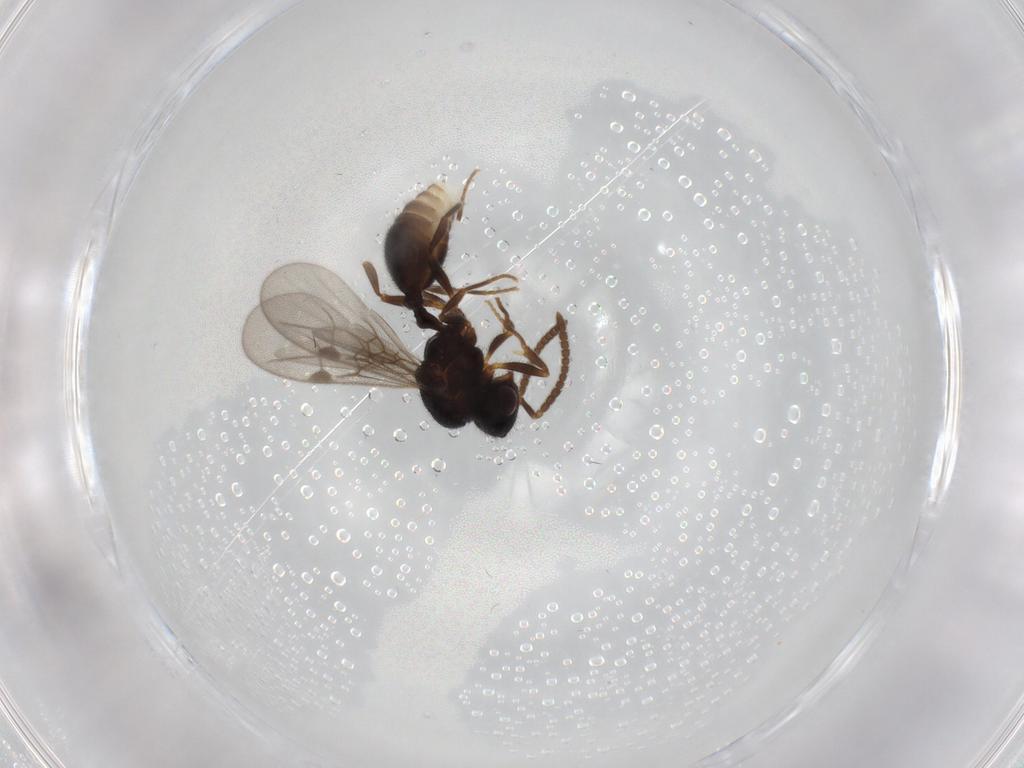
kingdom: Animalia
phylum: Arthropoda
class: Insecta
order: Hymenoptera
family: Formicidae
